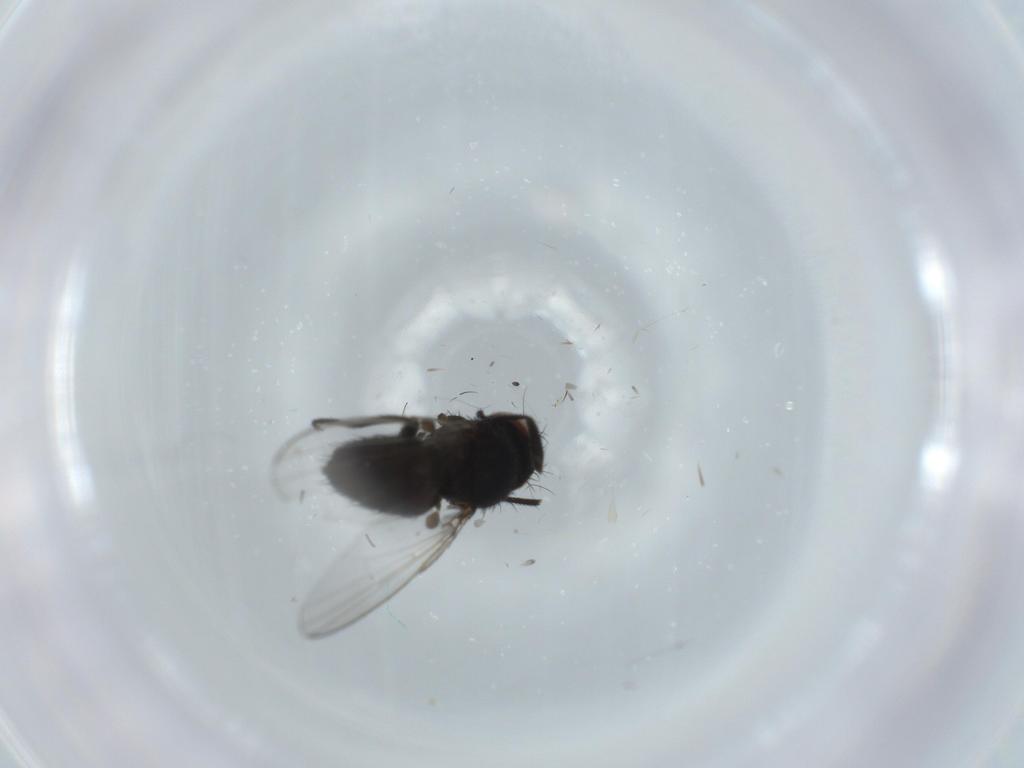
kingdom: Animalia
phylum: Arthropoda
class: Insecta
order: Diptera
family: Milichiidae
